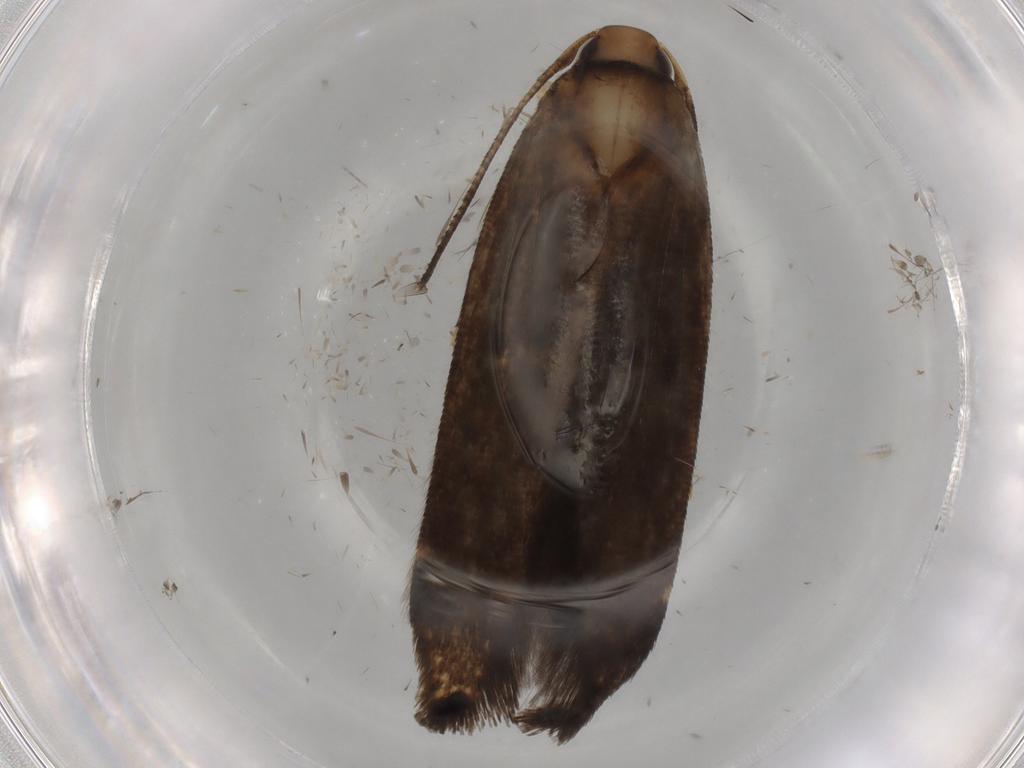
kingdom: Animalia
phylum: Arthropoda
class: Insecta
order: Lepidoptera
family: Cosmopterigidae
